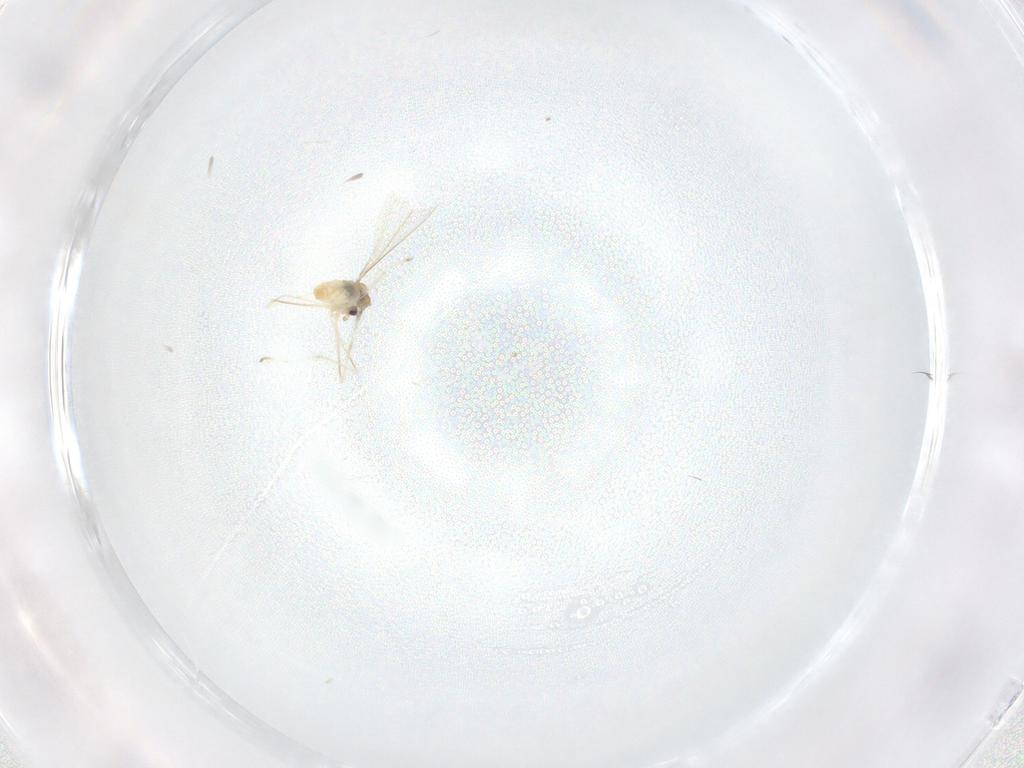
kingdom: Animalia
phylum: Arthropoda
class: Insecta
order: Diptera
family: Cecidomyiidae
